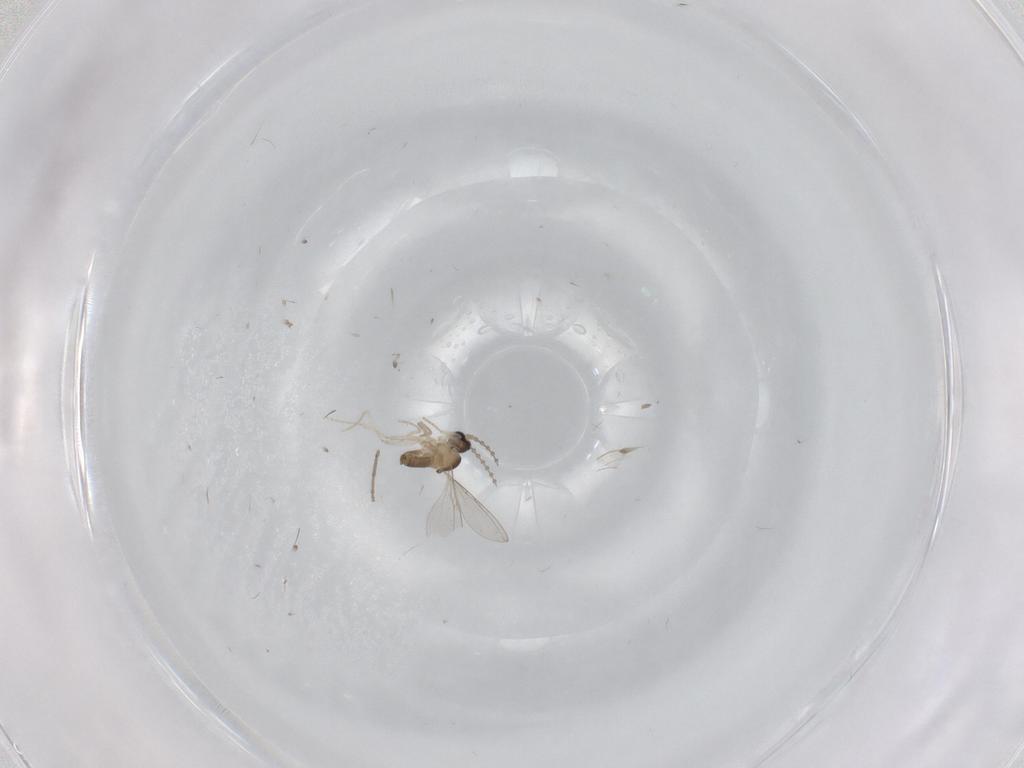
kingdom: Animalia
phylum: Arthropoda
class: Insecta
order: Diptera
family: Cecidomyiidae
